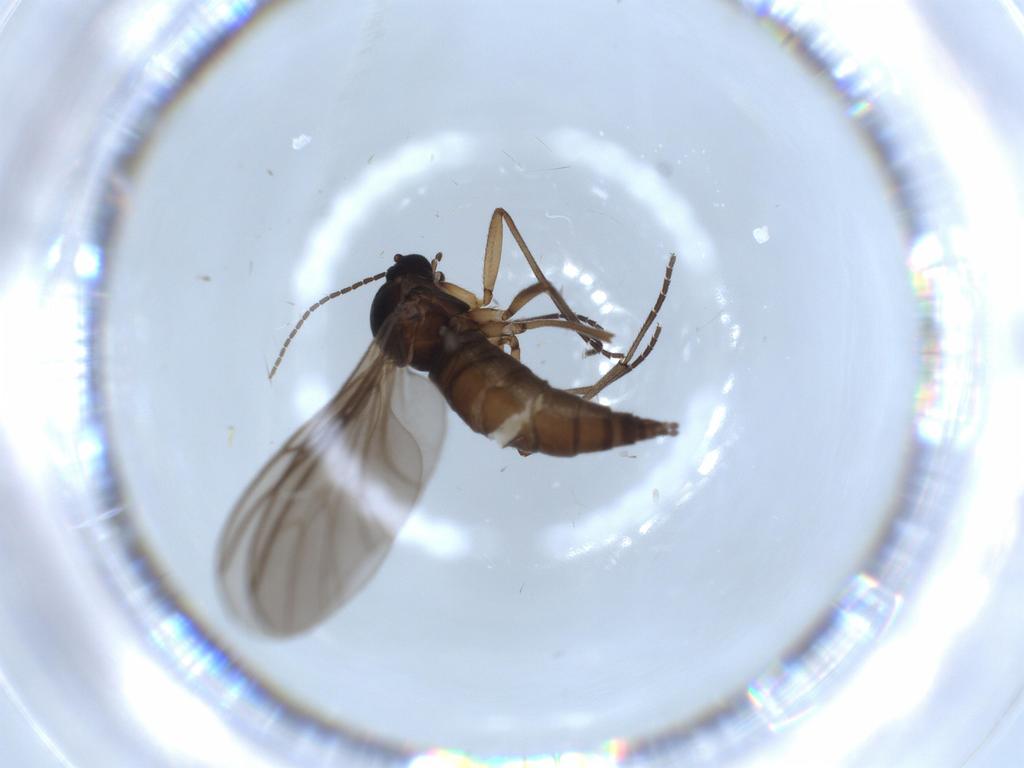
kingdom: Animalia
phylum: Arthropoda
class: Insecta
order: Diptera
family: Sciaridae
